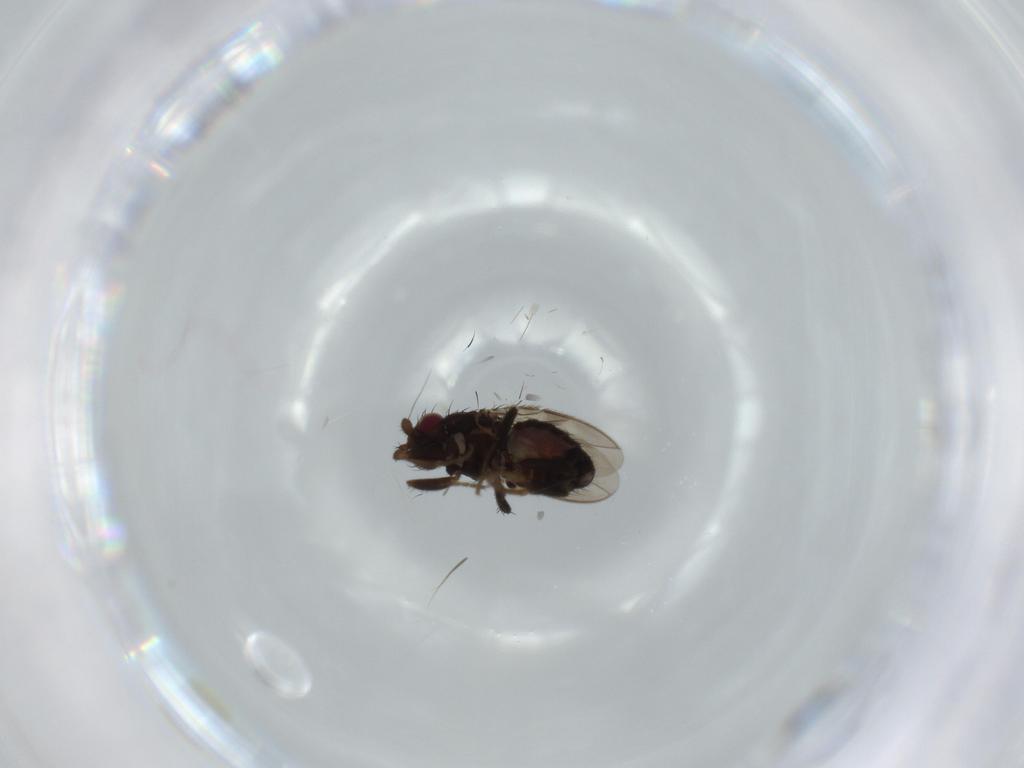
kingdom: Animalia
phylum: Arthropoda
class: Insecta
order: Diptera
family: Sphaeroceridae
